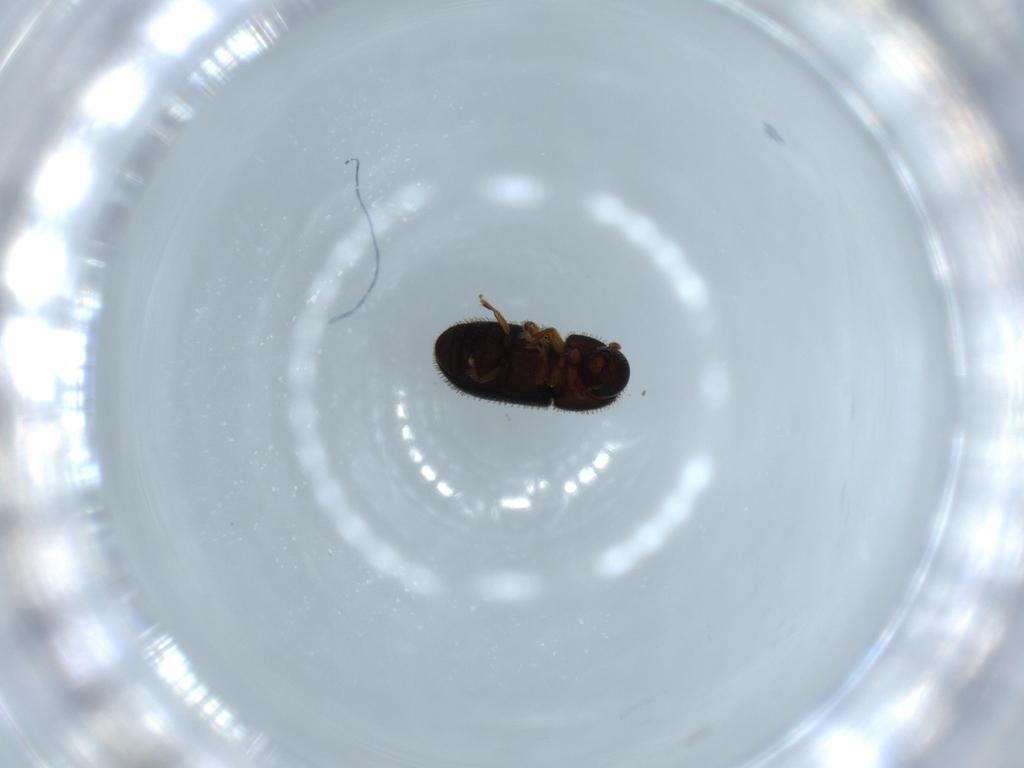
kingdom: Animalia
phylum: Arthropoda
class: Insecta
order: Coleoptera
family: Curculionidae
